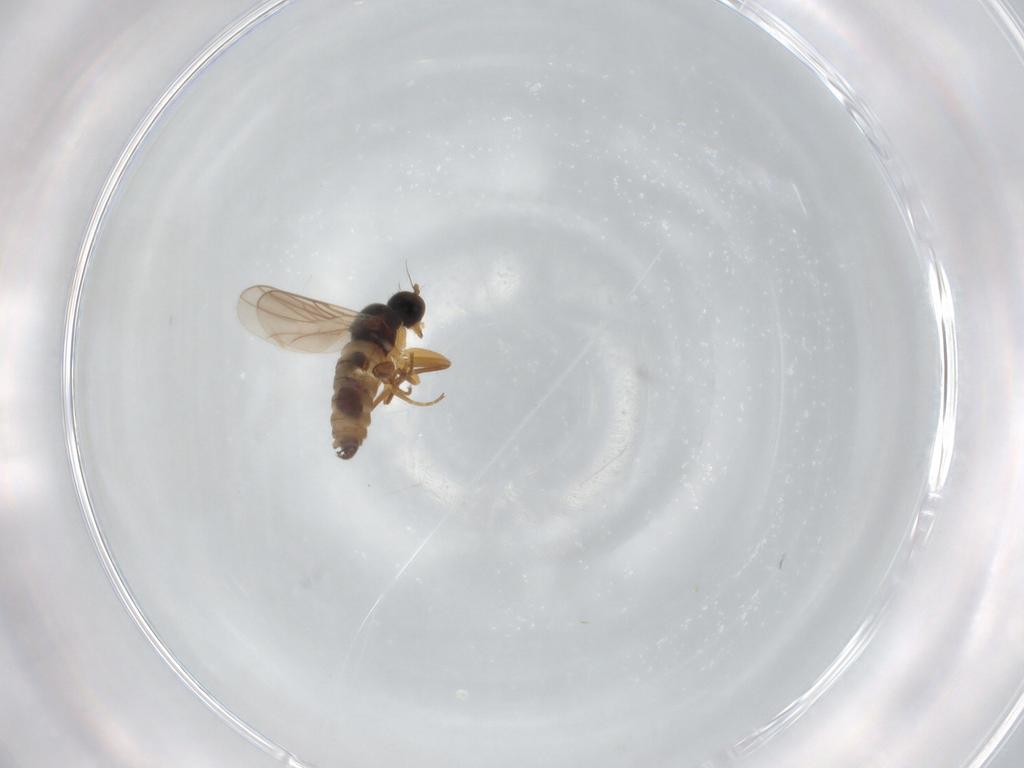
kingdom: Animalia
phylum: Arthropoda
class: Insecta
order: Diptera
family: Hybotidae
